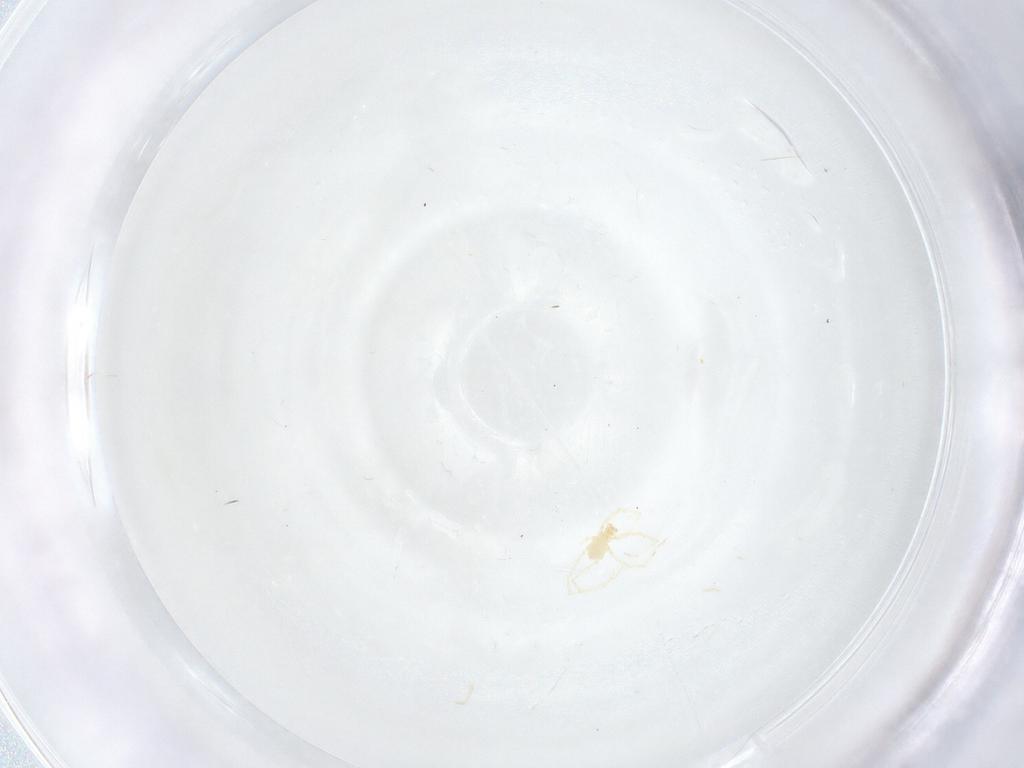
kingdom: Animalia
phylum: Arthropoda
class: Arachnida
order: Trombidiformes
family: Erythraeidae
